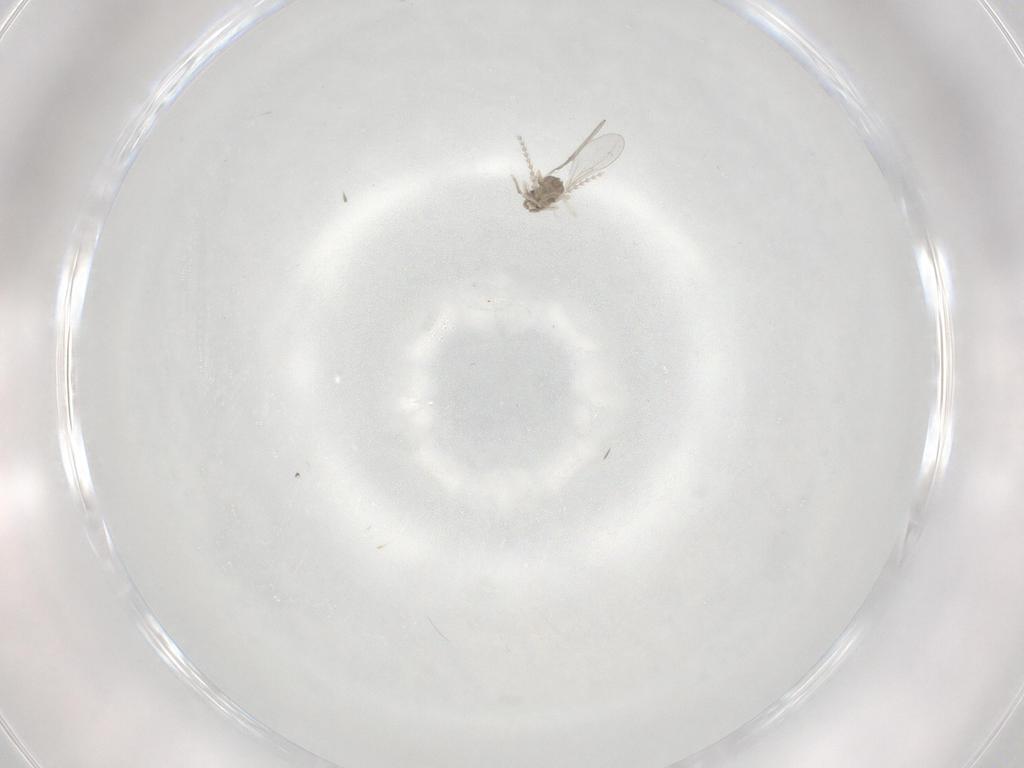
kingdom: Animalia
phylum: Arthropoda
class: Insecta
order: Diptera
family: Cecidomyiidae
